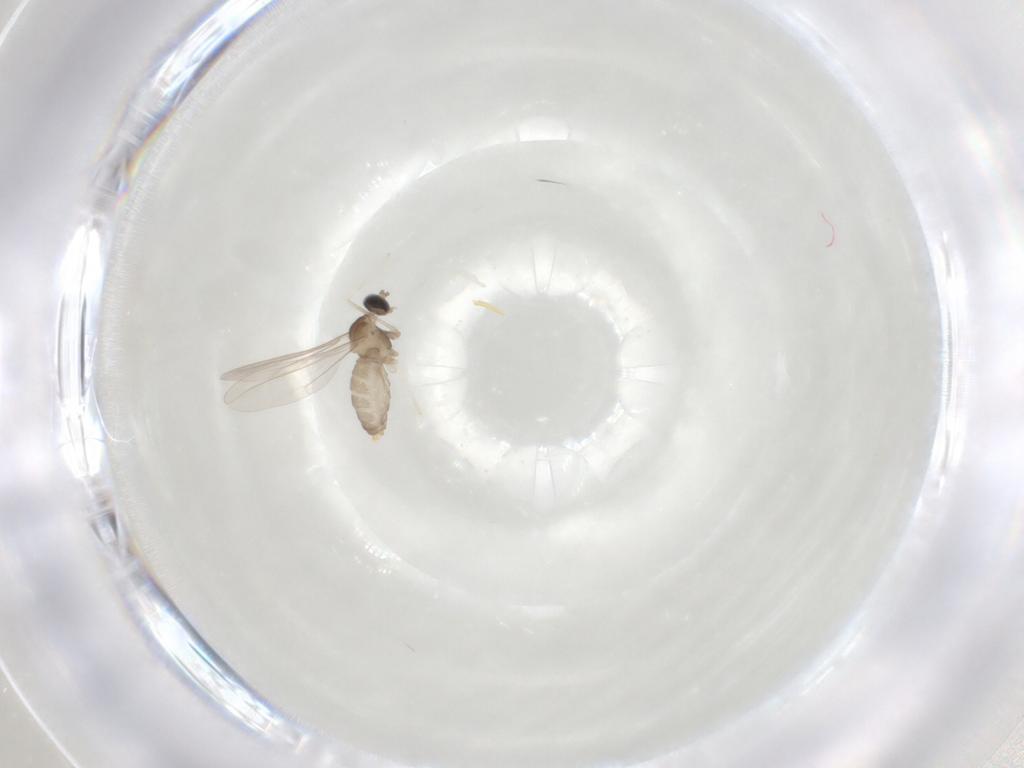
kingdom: Animalia
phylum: Arthropoda
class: Insecta
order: Diptera
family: Cecidomyiidae
